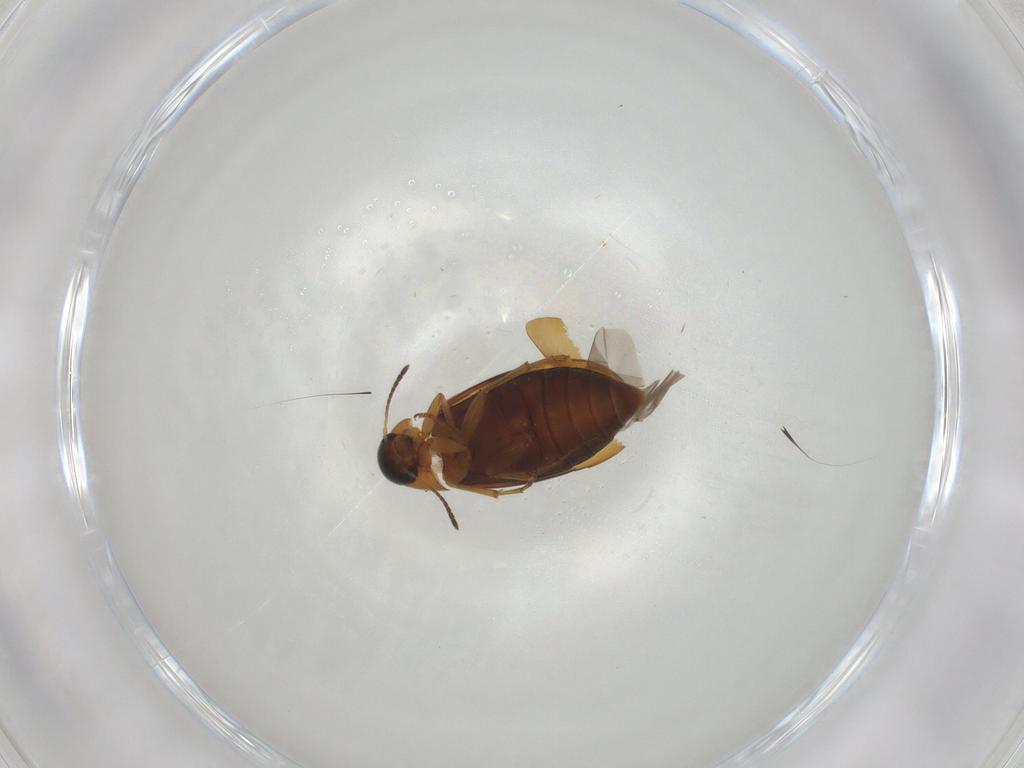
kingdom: Animalia
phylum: Arthropoda
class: Insecta
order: Coleoptera
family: Scraptiidae
